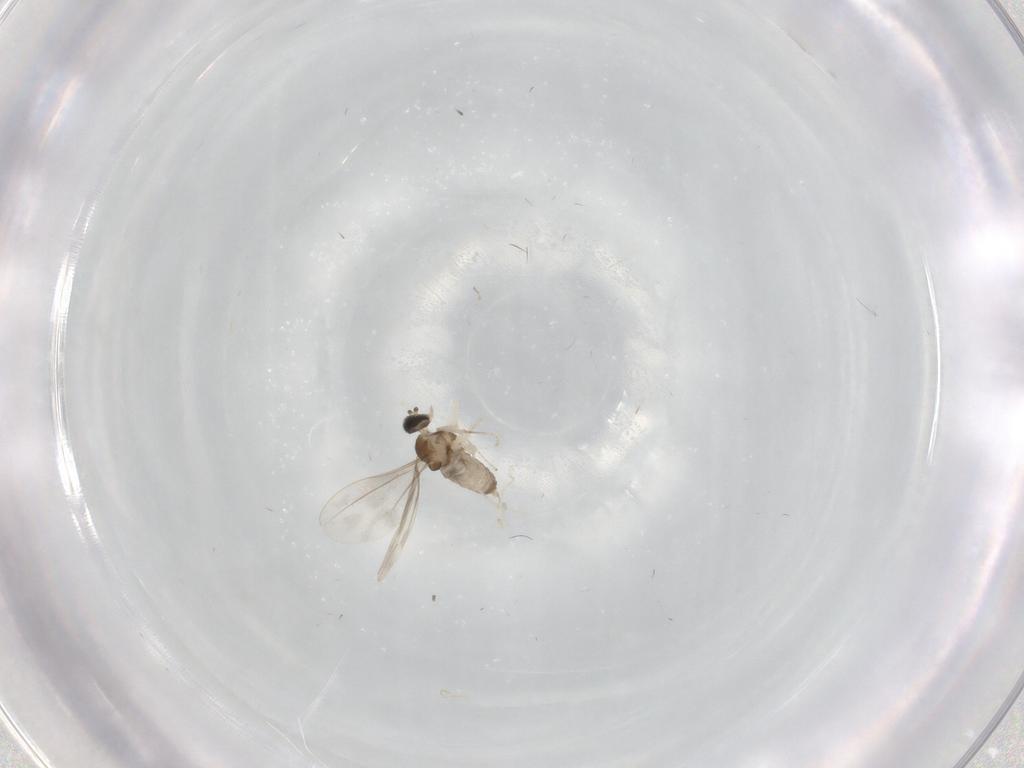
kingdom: Animalia
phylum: Arthropoda
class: Insecta
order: Diptera
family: Cecidomyiidae
